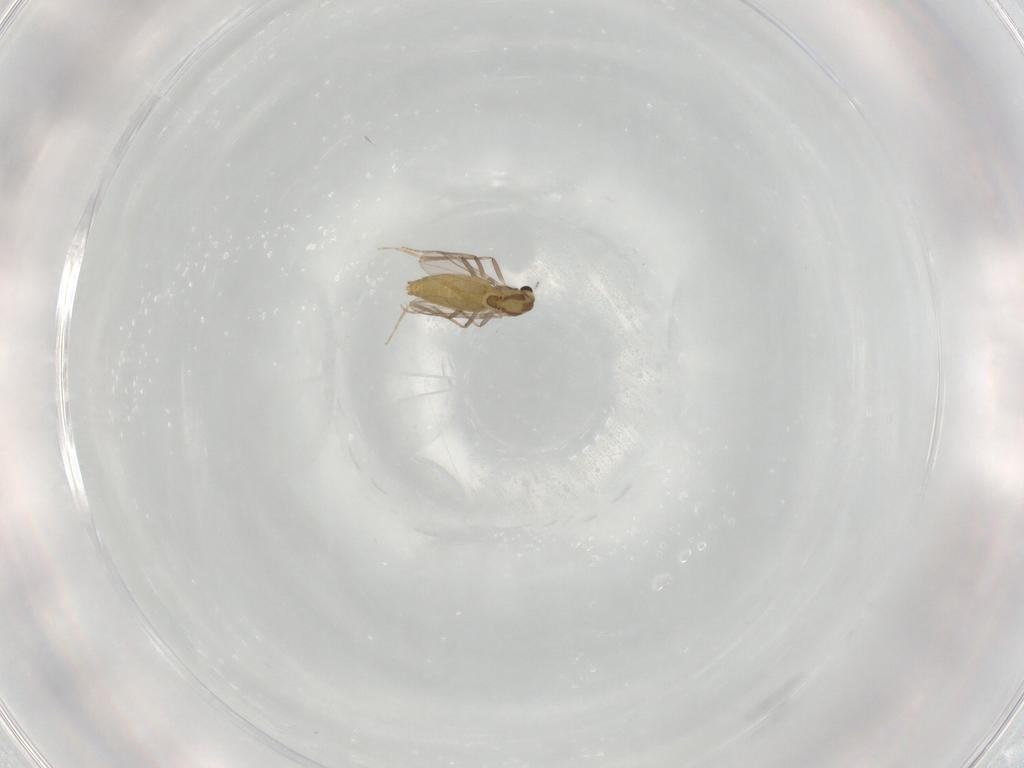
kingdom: Animalia
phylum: Arthropoda
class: Insecta
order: Diptera
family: Chironomidae
